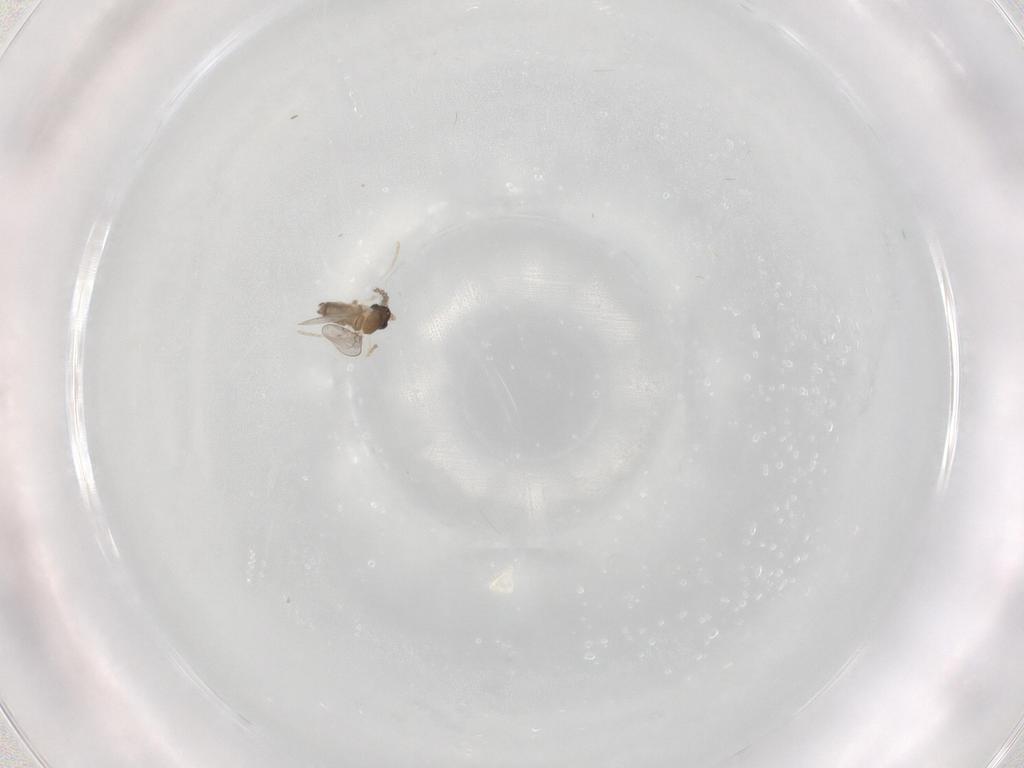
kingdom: Animalia
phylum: Arthropoda
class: Insecta
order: Diptera
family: Cecidomyiidae
